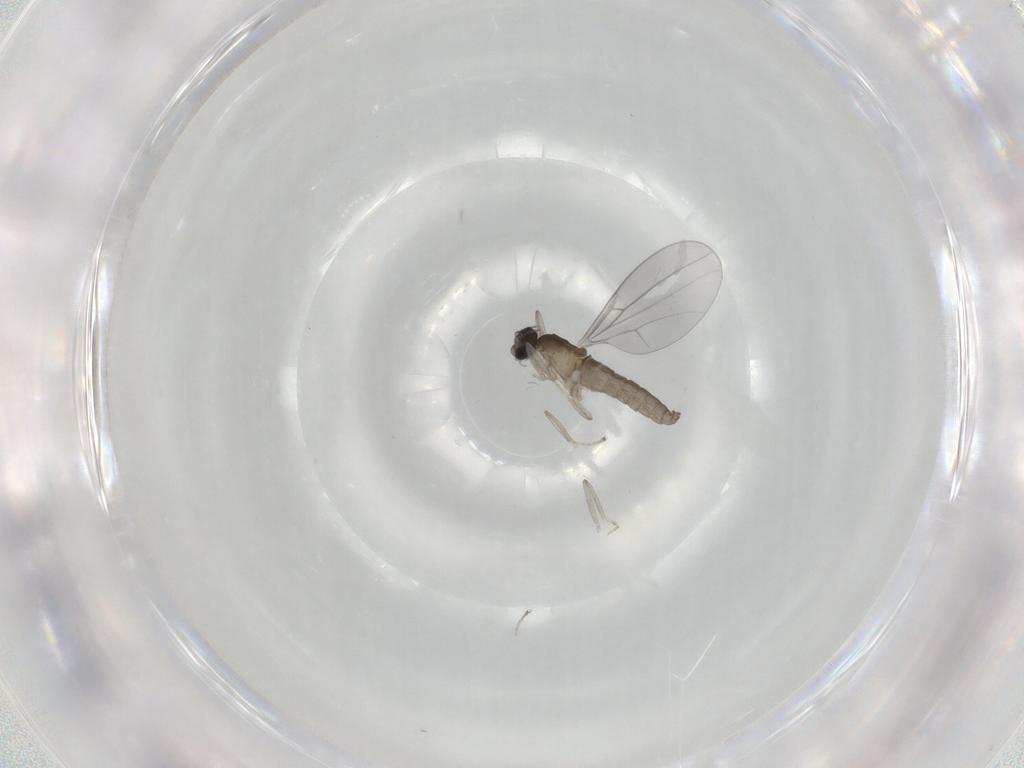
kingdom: Animalia
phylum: Arthropoda
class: Insecta
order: Diptera
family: Cecidomyiidae
